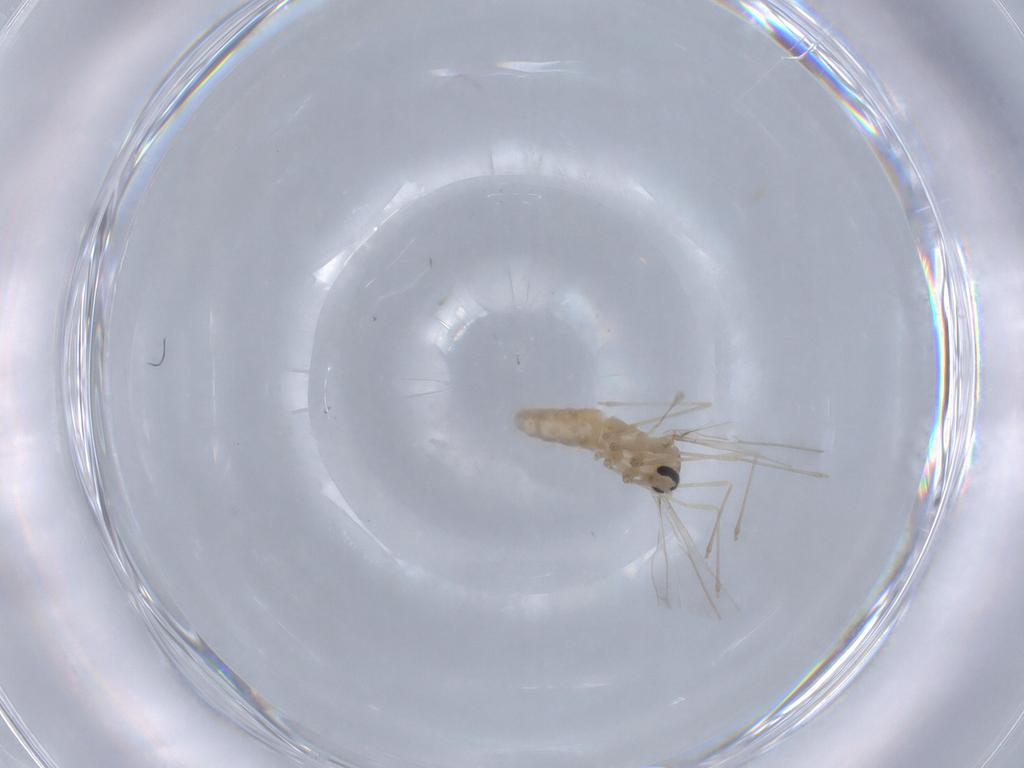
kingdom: Animalia
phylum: Arthropoda
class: Insecta
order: Diptera
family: Cecidomyiidae
